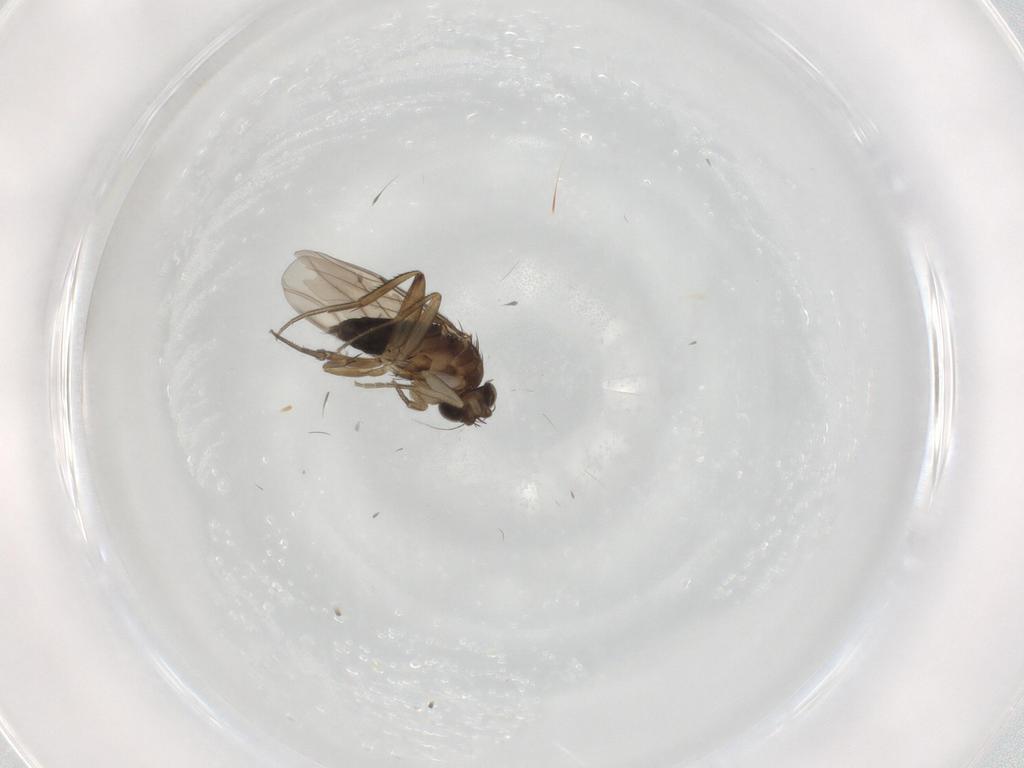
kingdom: Animalia
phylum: Arthropoda
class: Insecta
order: Diptera
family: Phoridae
